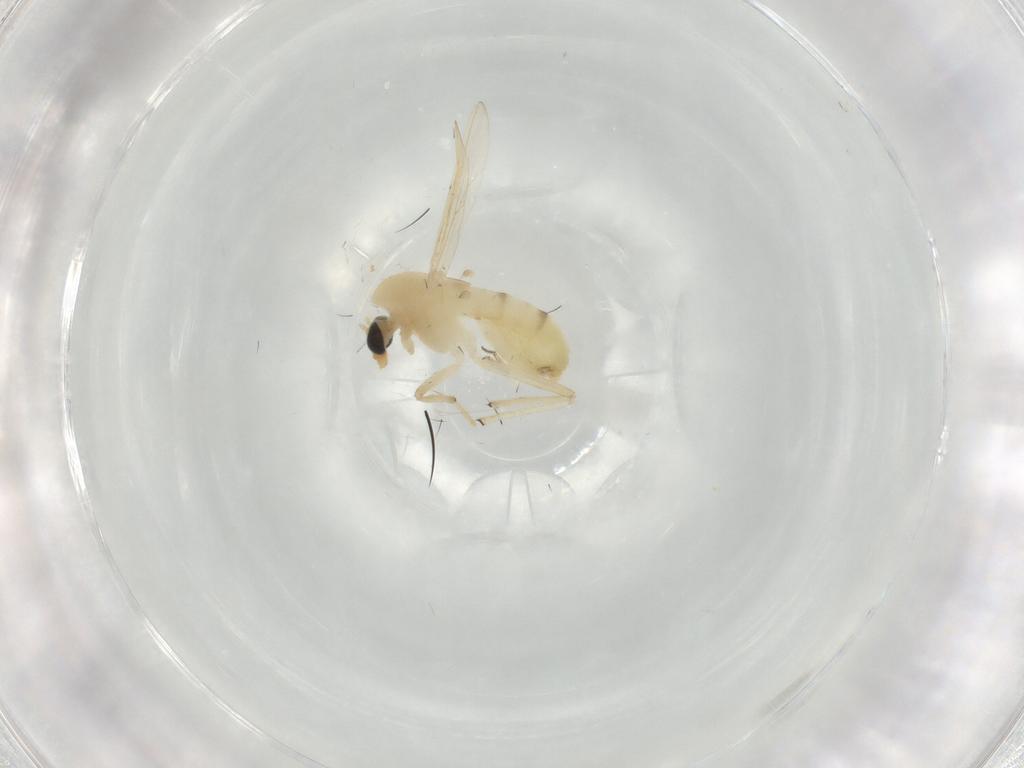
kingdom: Animalia
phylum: Arthropoda
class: Insecta
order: Diptera
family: Chironomidae
